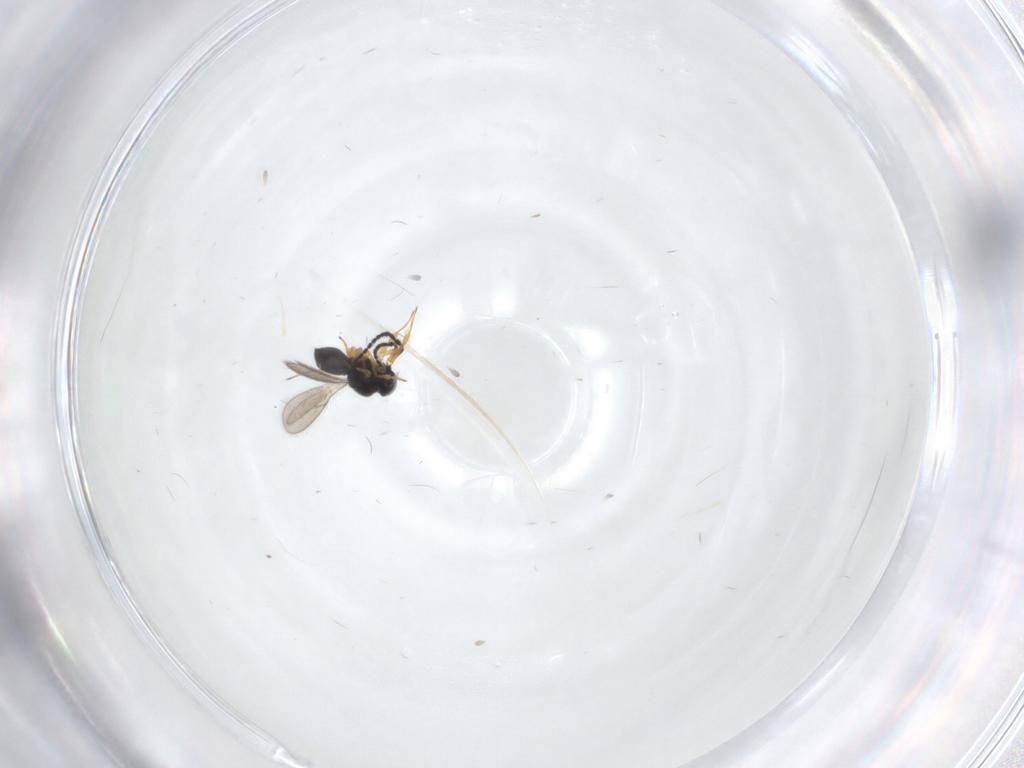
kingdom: Animalia
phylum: Arthropoda
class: Insecta
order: Hymenoptera
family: Scelionidae
